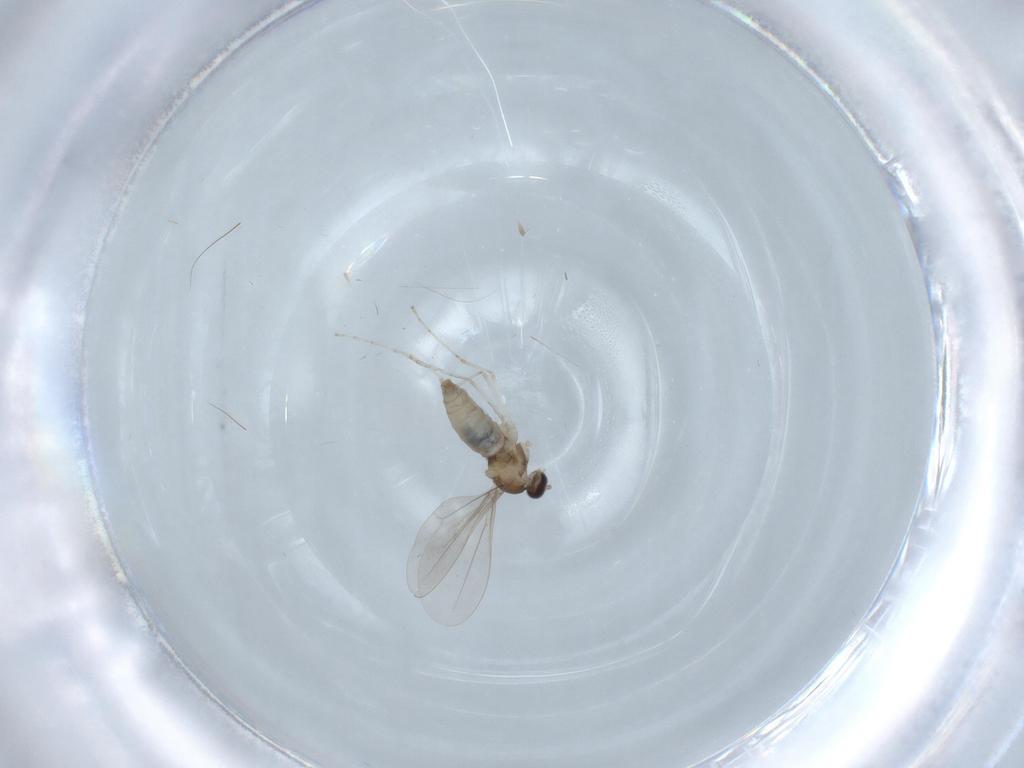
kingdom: Animalia
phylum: Arthropoda
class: Insecta
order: Diptera
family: Cecidomyiidae
